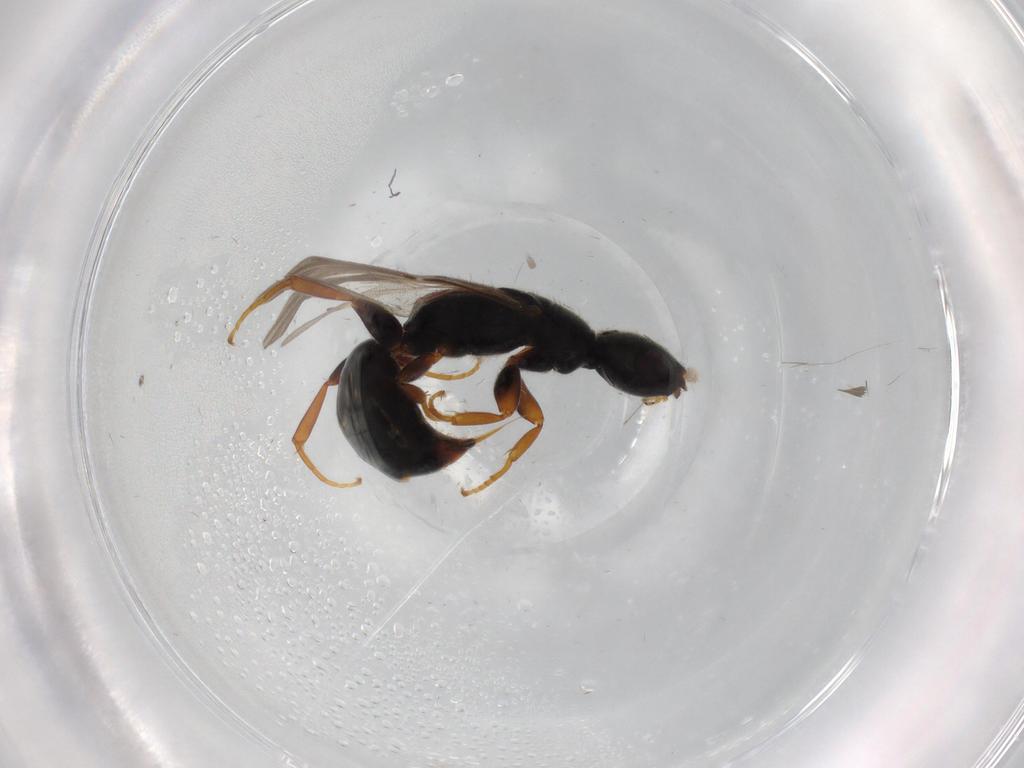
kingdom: Animalia
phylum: Arthropoda
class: Insecta
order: Hymenoptera
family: Bethylidae
